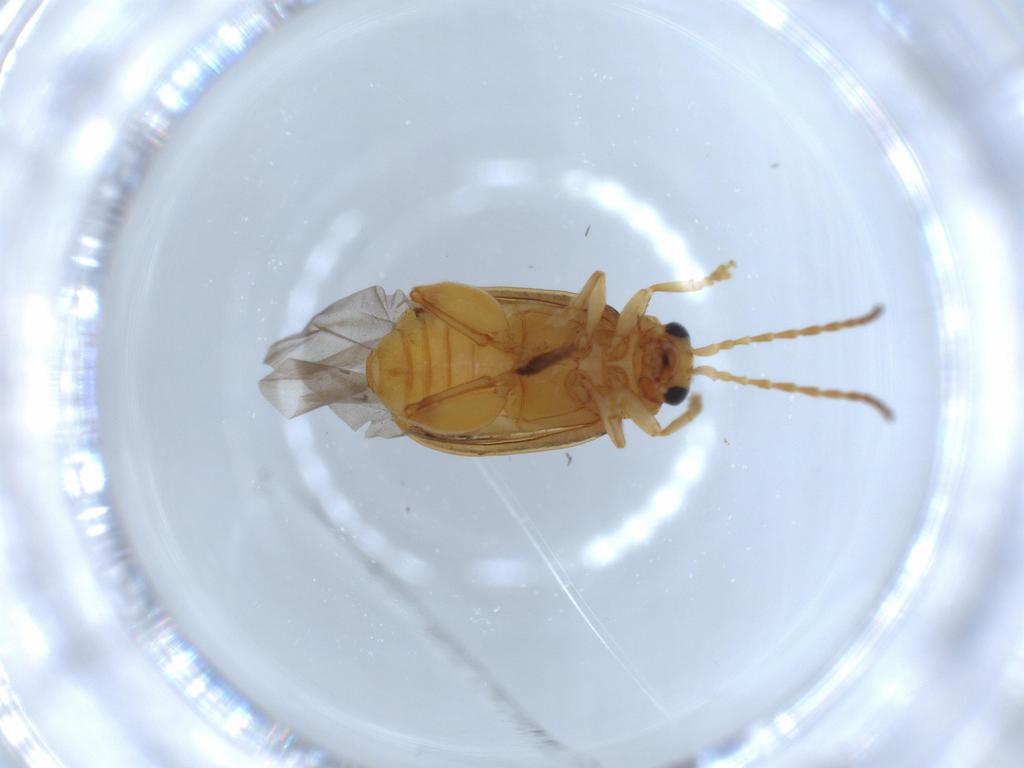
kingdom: Animalia
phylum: Arthropoda
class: Insecta
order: Coleoptera
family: Chrysomelidae
